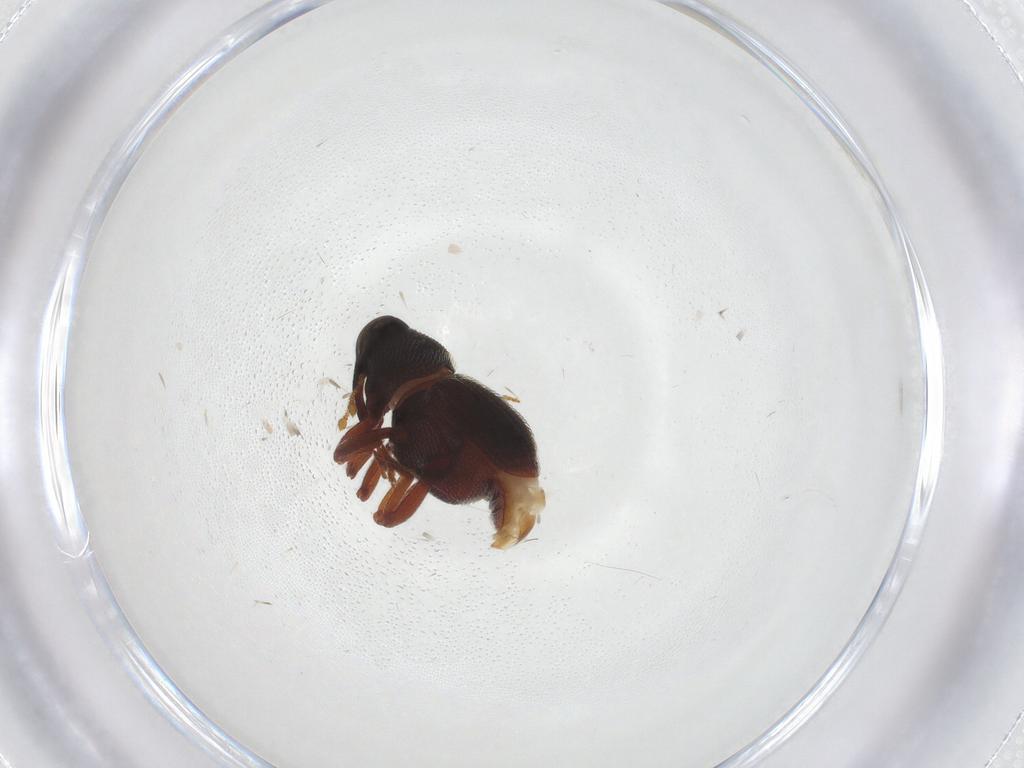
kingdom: Animalia
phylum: Arthropoda
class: Insecta
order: Coleoptera
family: Curculionidae
